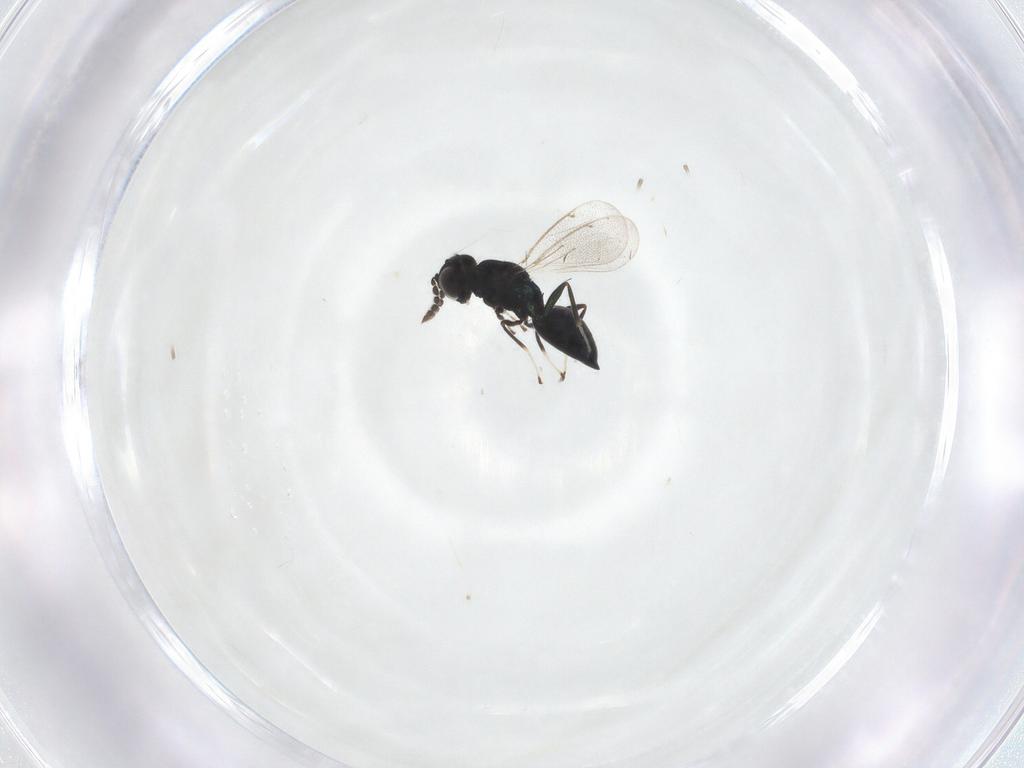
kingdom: Animalia
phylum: Arthropoda
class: Insecta
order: Hymenoptera
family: Eulophidae
